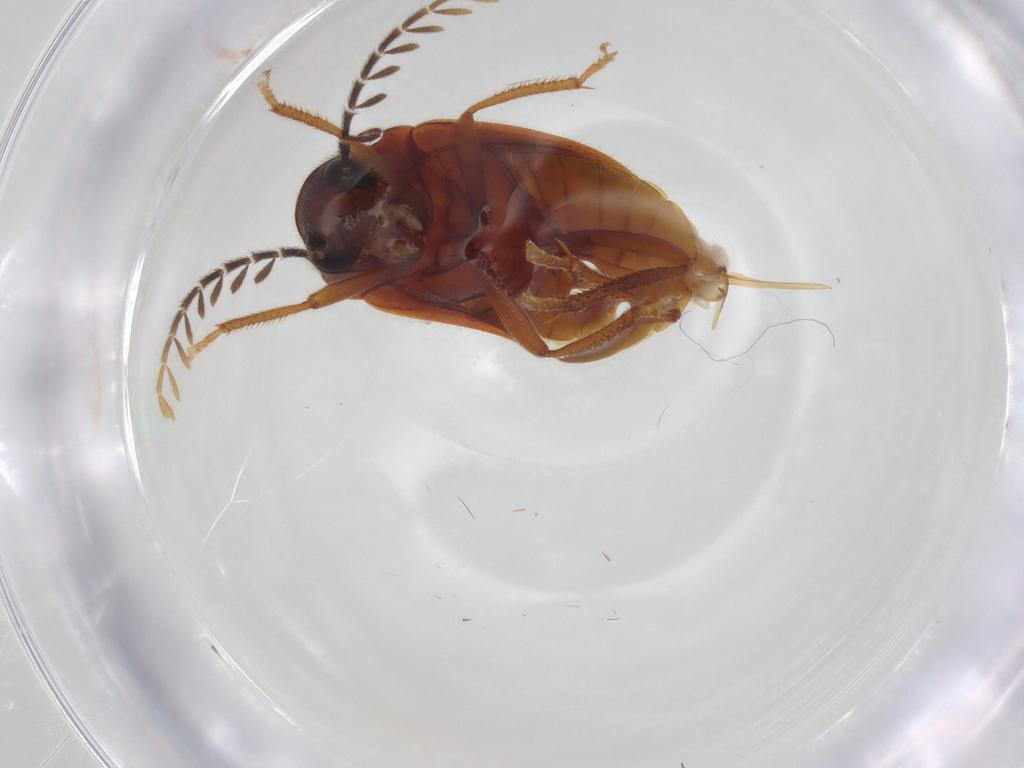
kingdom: Animalia
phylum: Arthropoda
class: Insecta
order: Coleoptera
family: Ptilodactylidae
